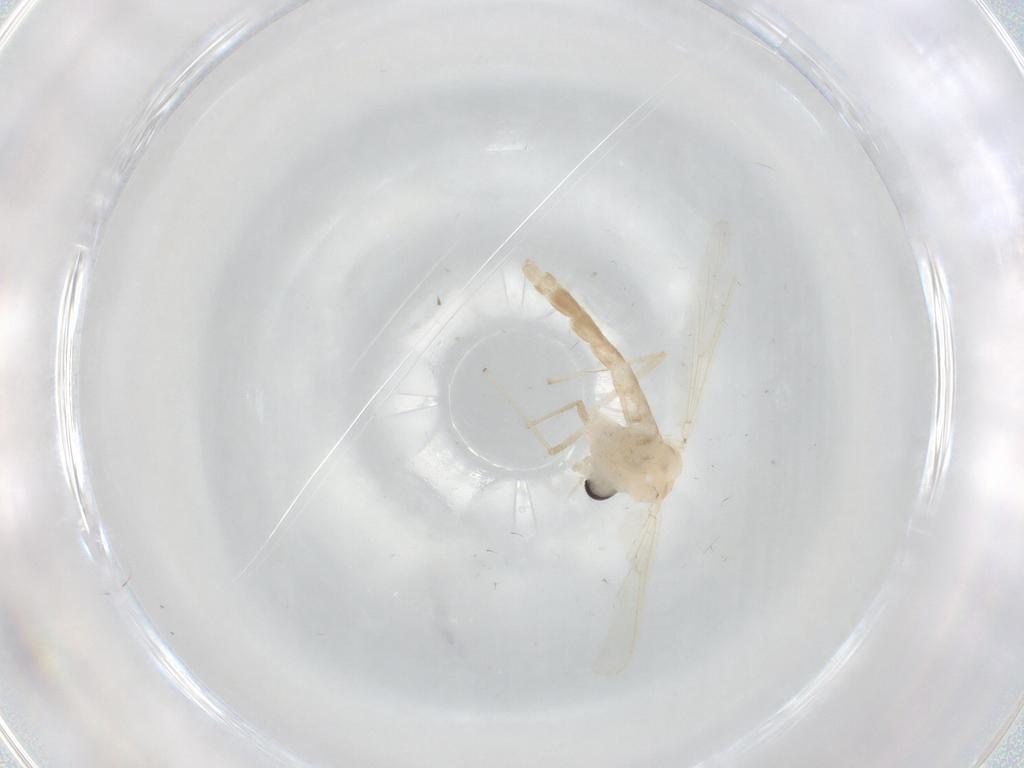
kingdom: Animalia
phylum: Arthropoda
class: Insecta
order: Diptera
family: Chironomidae
